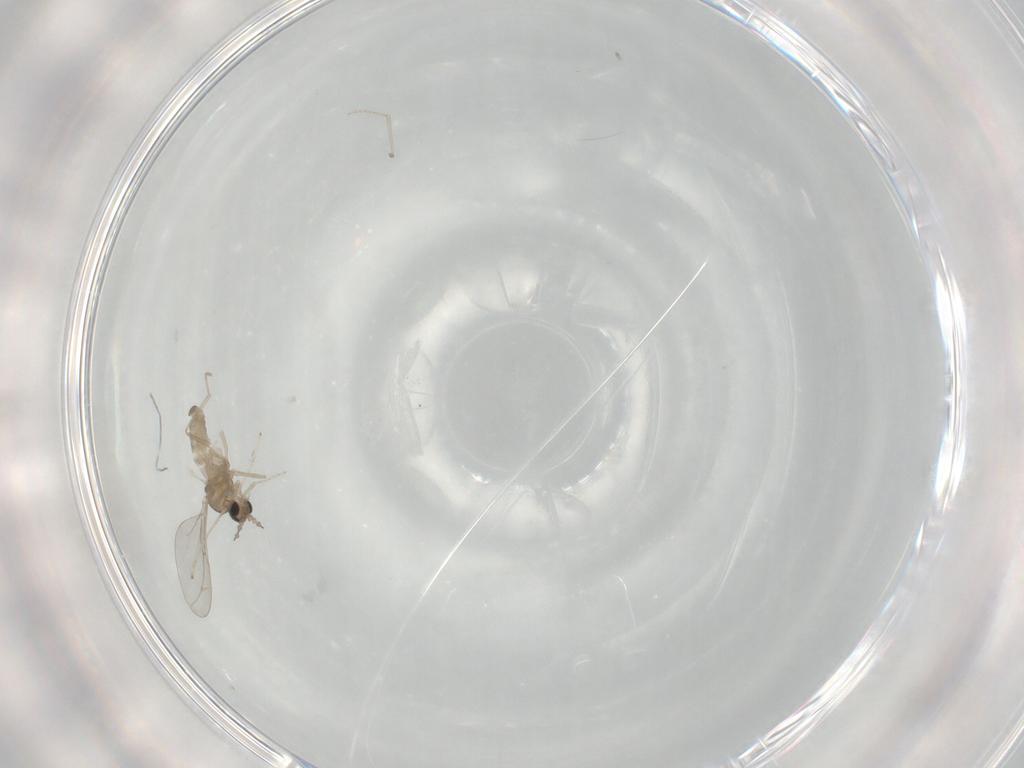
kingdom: Animalia
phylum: Arthropoda
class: Insecta
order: Diptera
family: Cecidomyiidae
